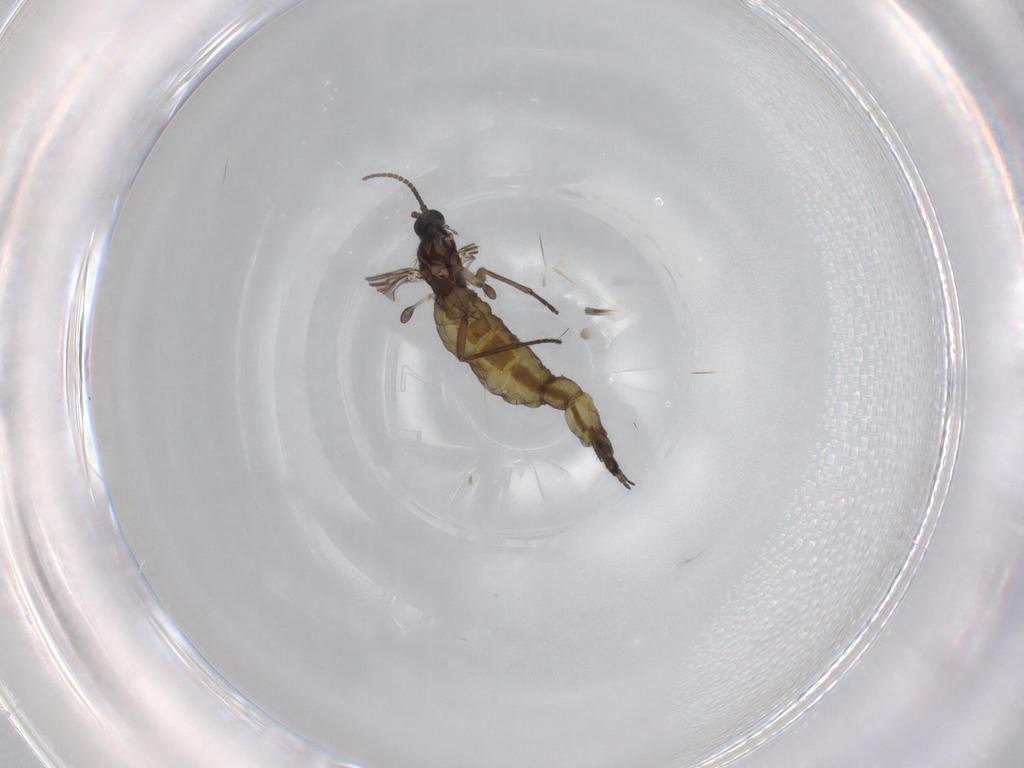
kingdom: Animalia
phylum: Arthropoda
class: Insecta
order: Diptera
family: Sciaridae
